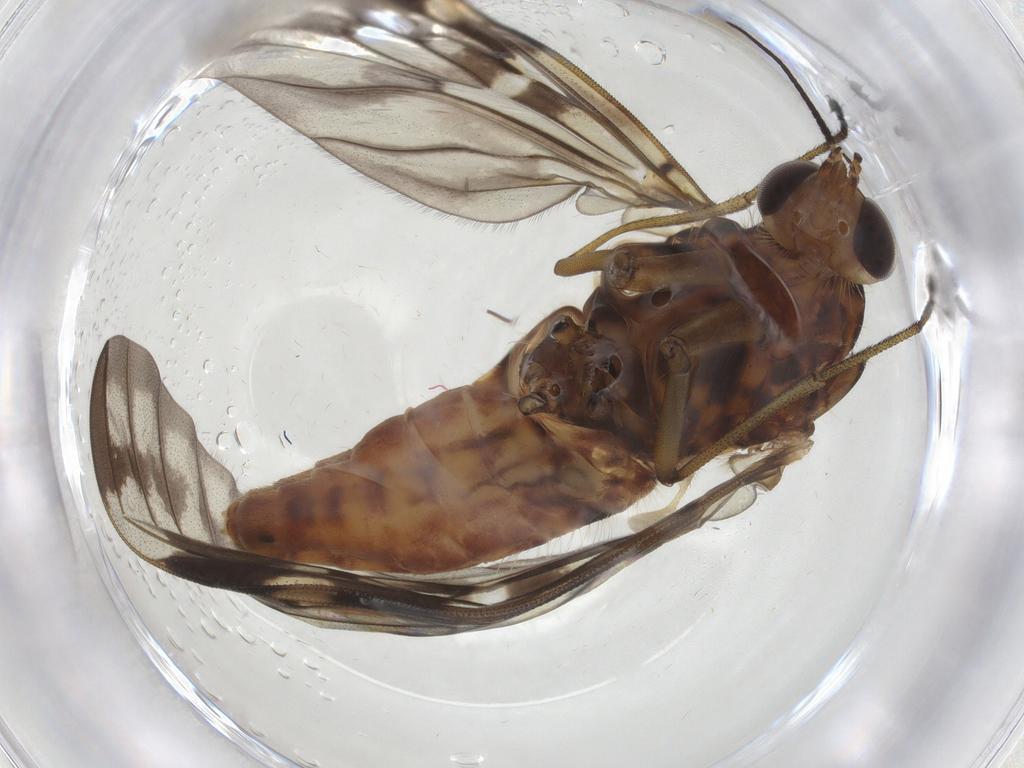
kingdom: Animalia
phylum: Arthropoda
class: Insecta
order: Diptera
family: Anisopodidae
